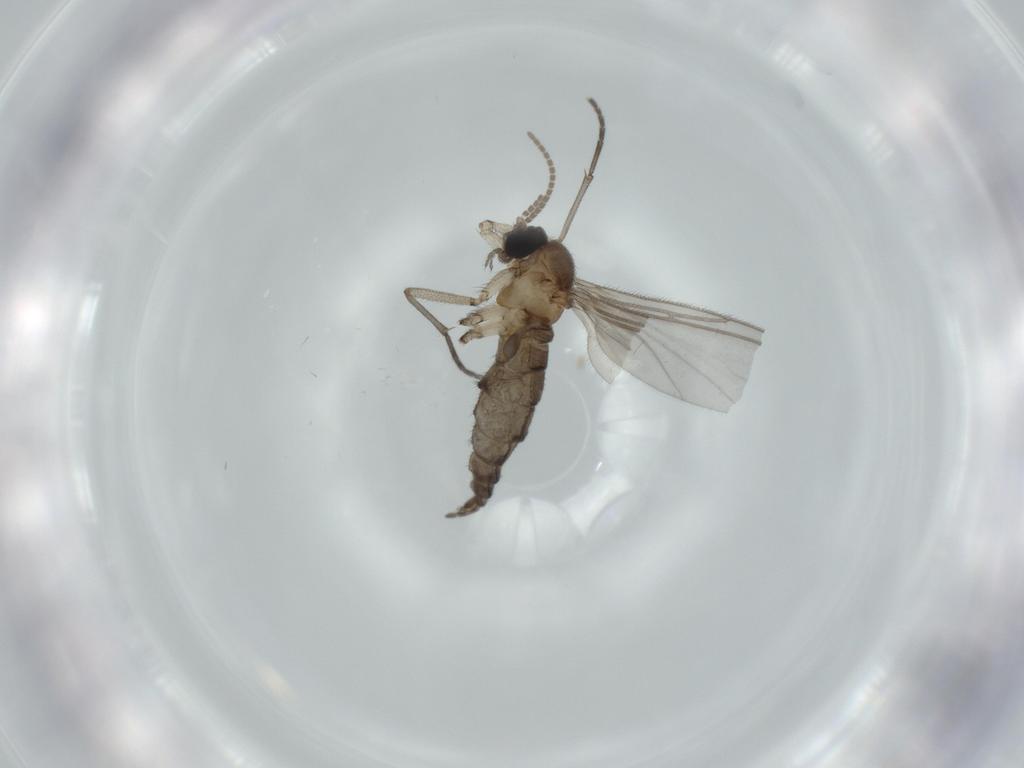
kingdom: Animalia
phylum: Arthropoda
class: Insecta
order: Diptera
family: Sciaridae
